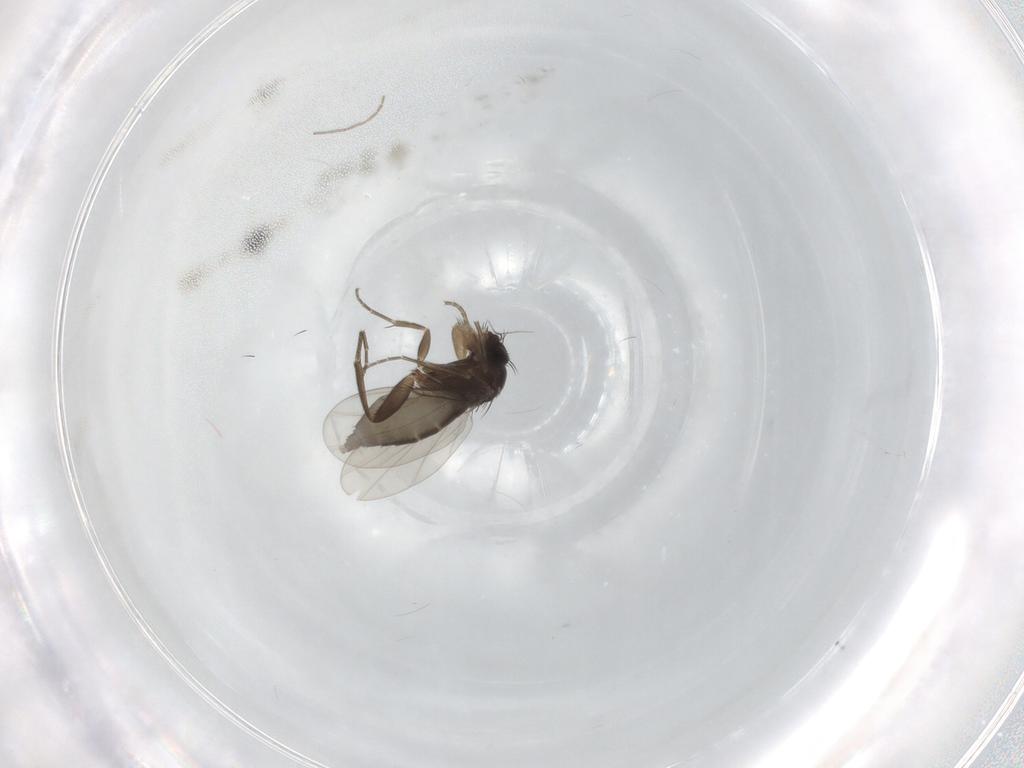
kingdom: Animalia
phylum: Arthropoda
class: Insecta
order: Diptera
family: Phoridae
